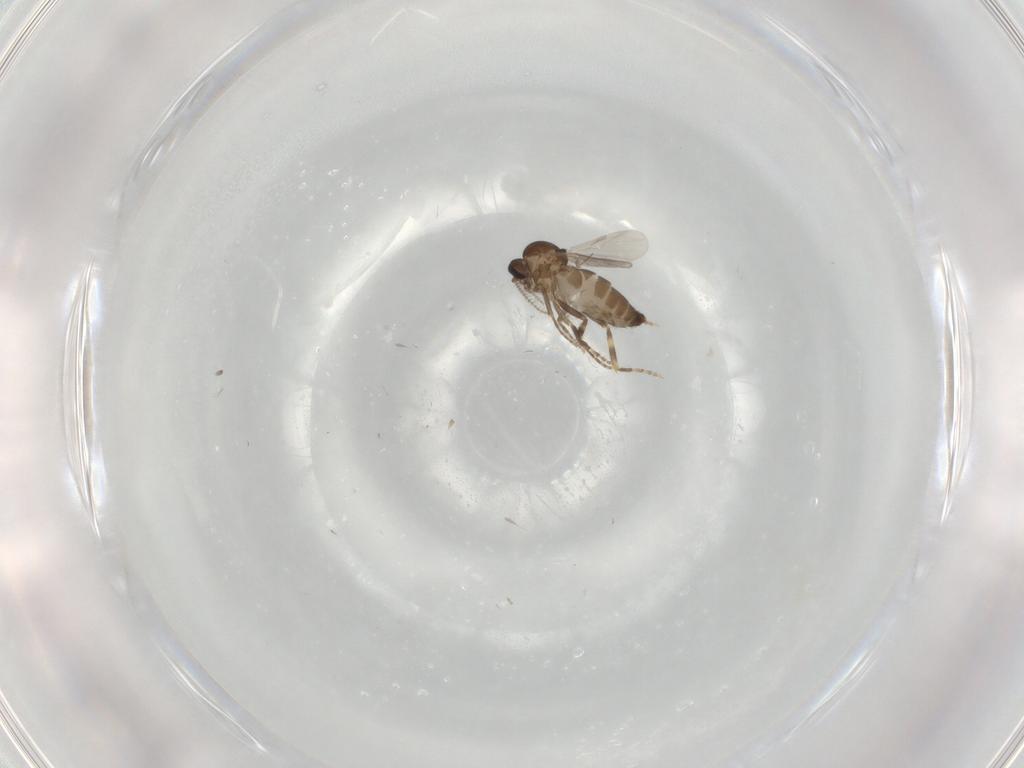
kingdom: Animalia
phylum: Arthropoda
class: Insecta
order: Diptera
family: Ceratopogonidae
